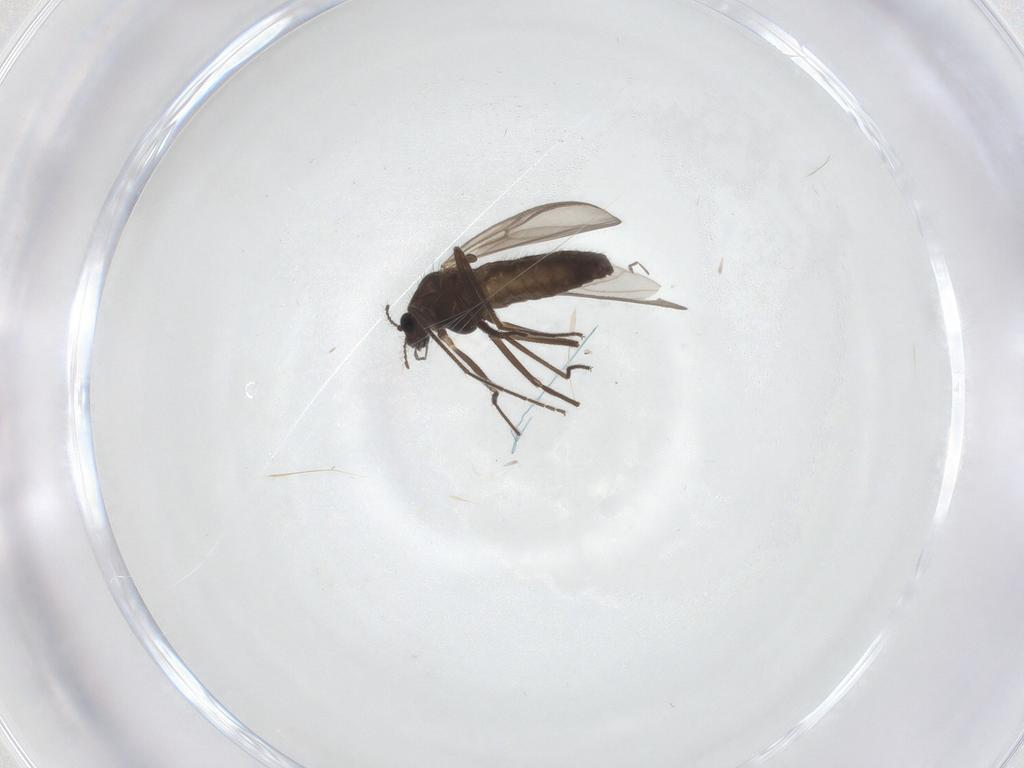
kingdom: Animalia
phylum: Arthropoda
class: Insecta
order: Diptera
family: Chironomidae
